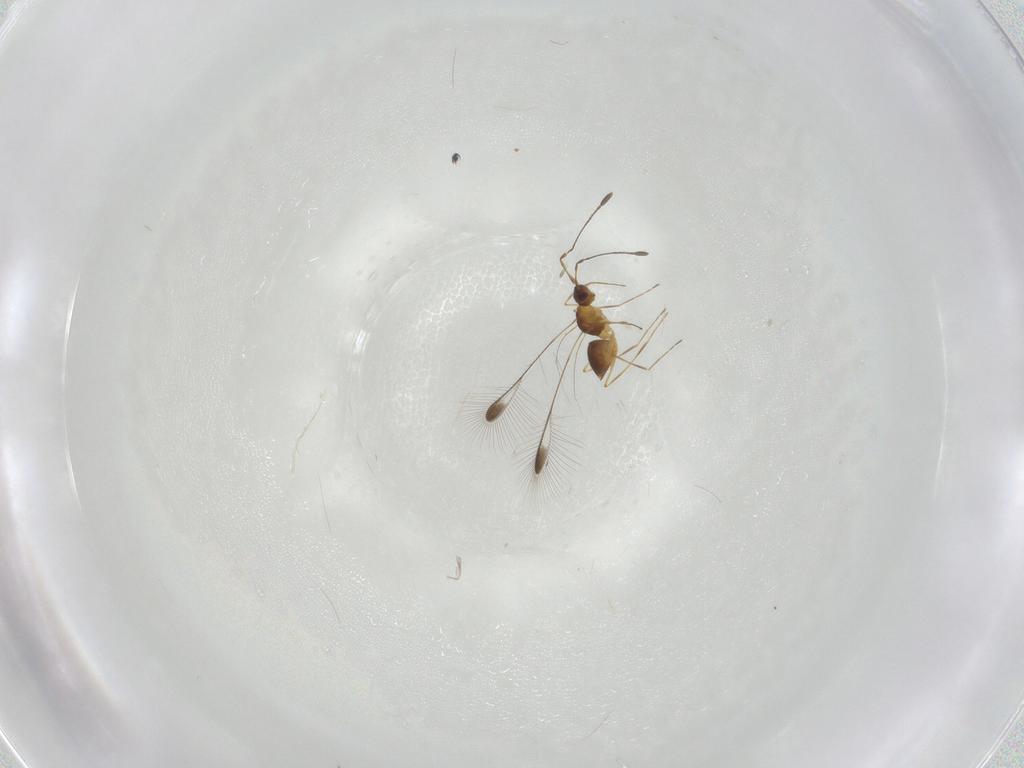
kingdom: Animalia
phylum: Arthropoda
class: Insecta
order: Hymenoptera
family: Mymaridae
